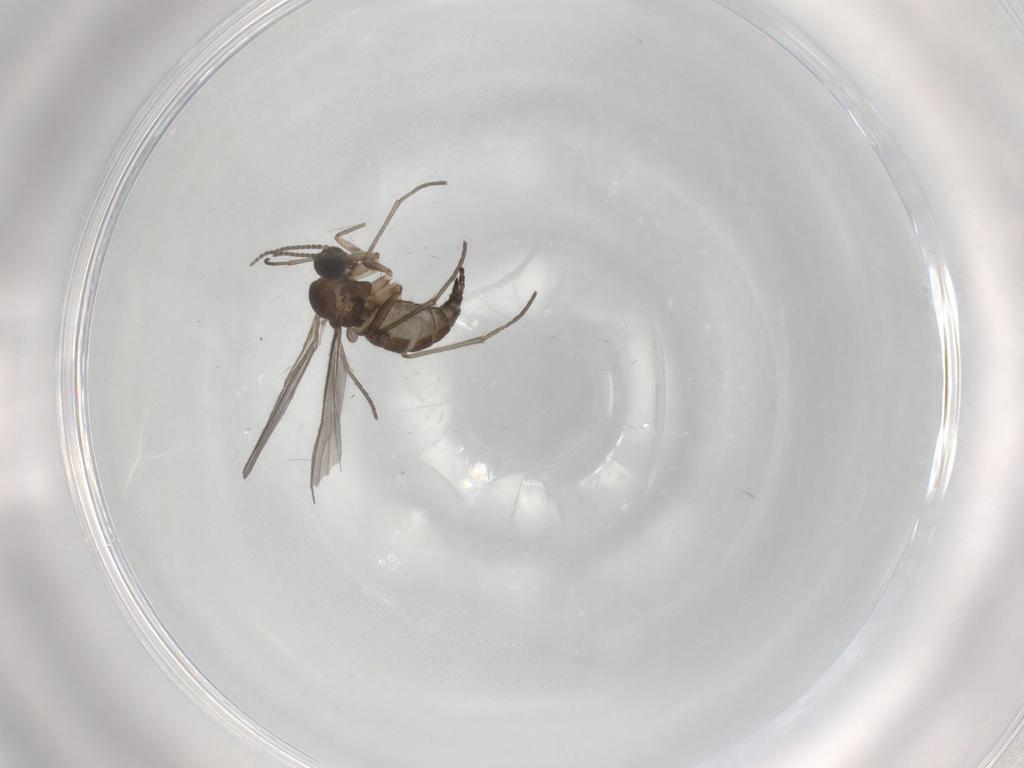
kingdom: Animalia
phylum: Arthropoda
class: Insecta
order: Diptera
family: Sciaridae
